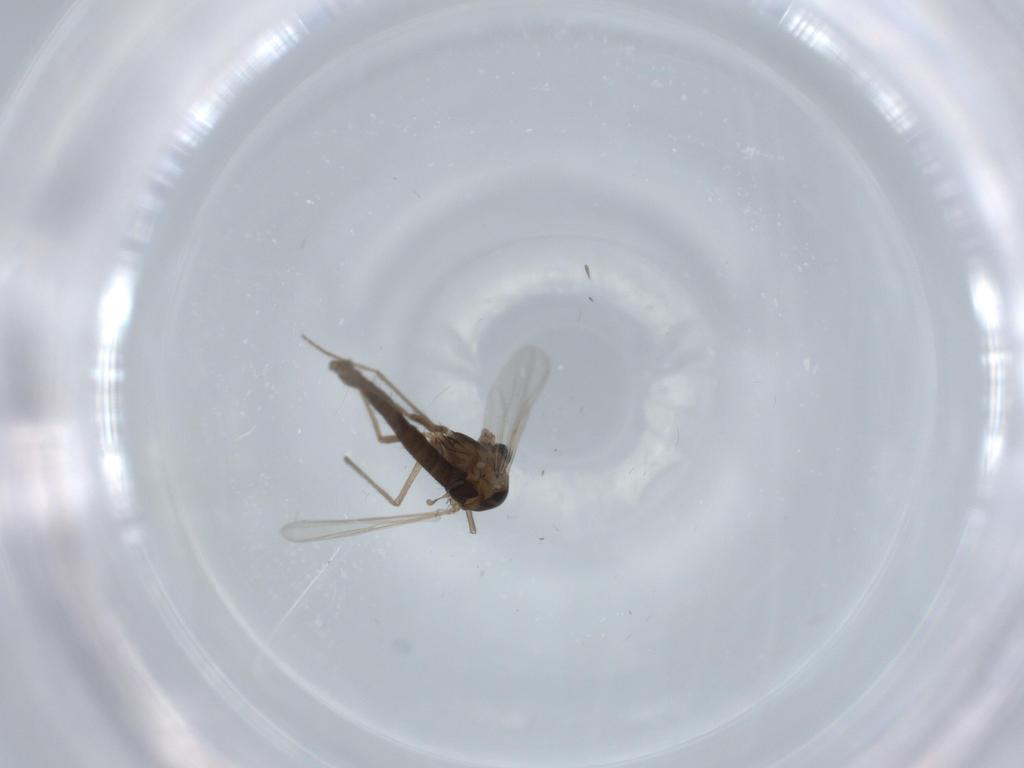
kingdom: Animalia
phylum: Arthropoda
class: Insecta
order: Diptera
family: Chironomidae
